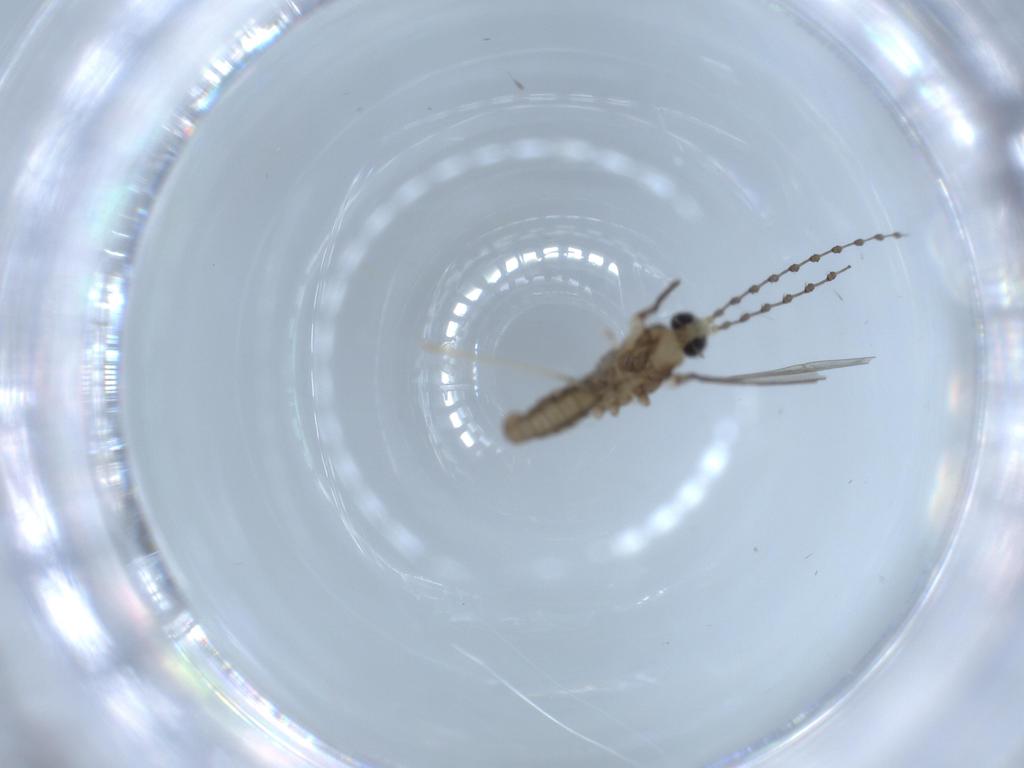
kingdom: Animalia
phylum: Arthropoda
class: Insecta
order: Diptera
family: Cecidomyiidae
